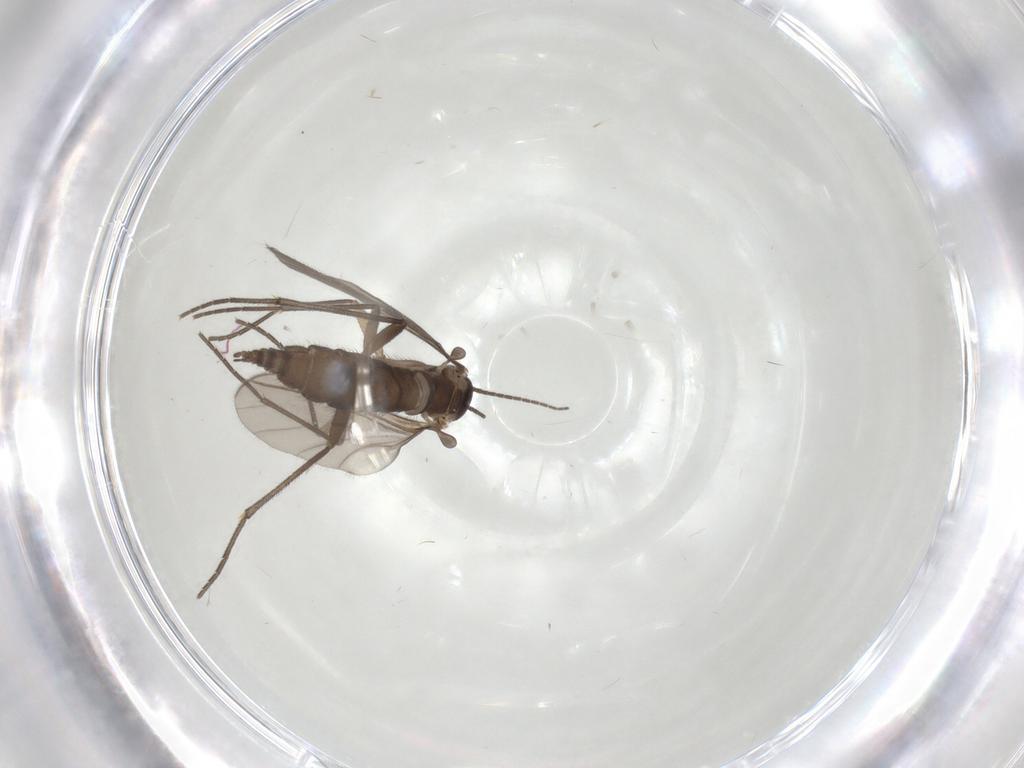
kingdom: Animalia
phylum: Arthropoda
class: Insecta
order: Diptera
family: Sciaridae
